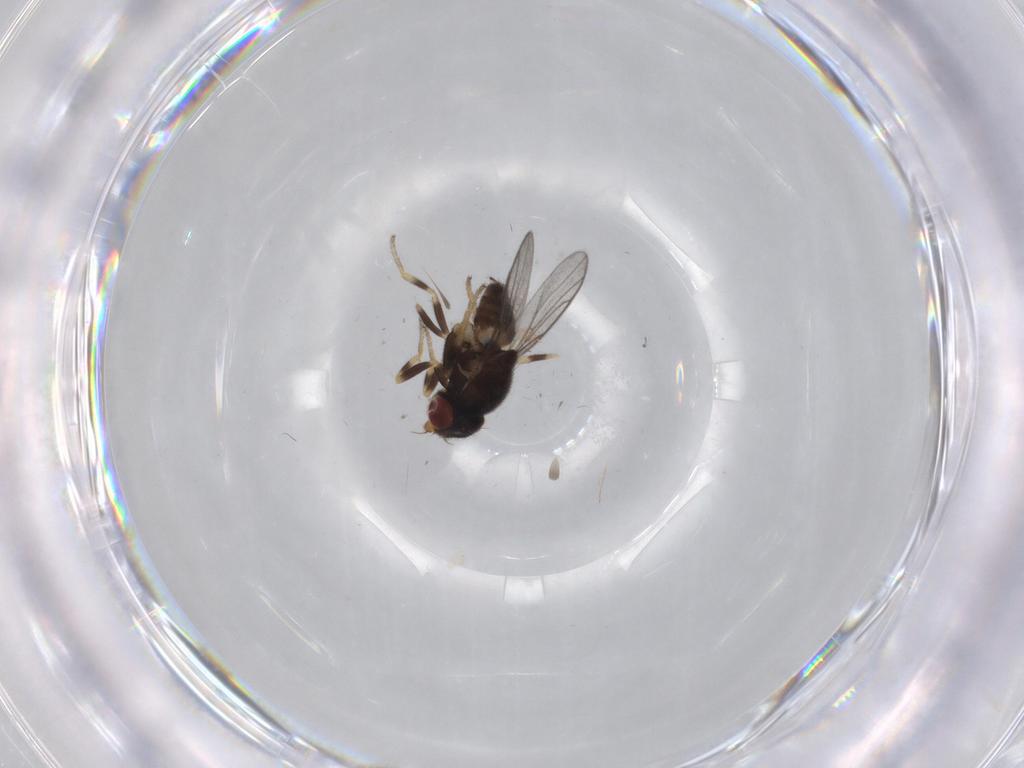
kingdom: Animalia
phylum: Arthropoda
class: Insecta
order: Diptera
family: Chloropidae
